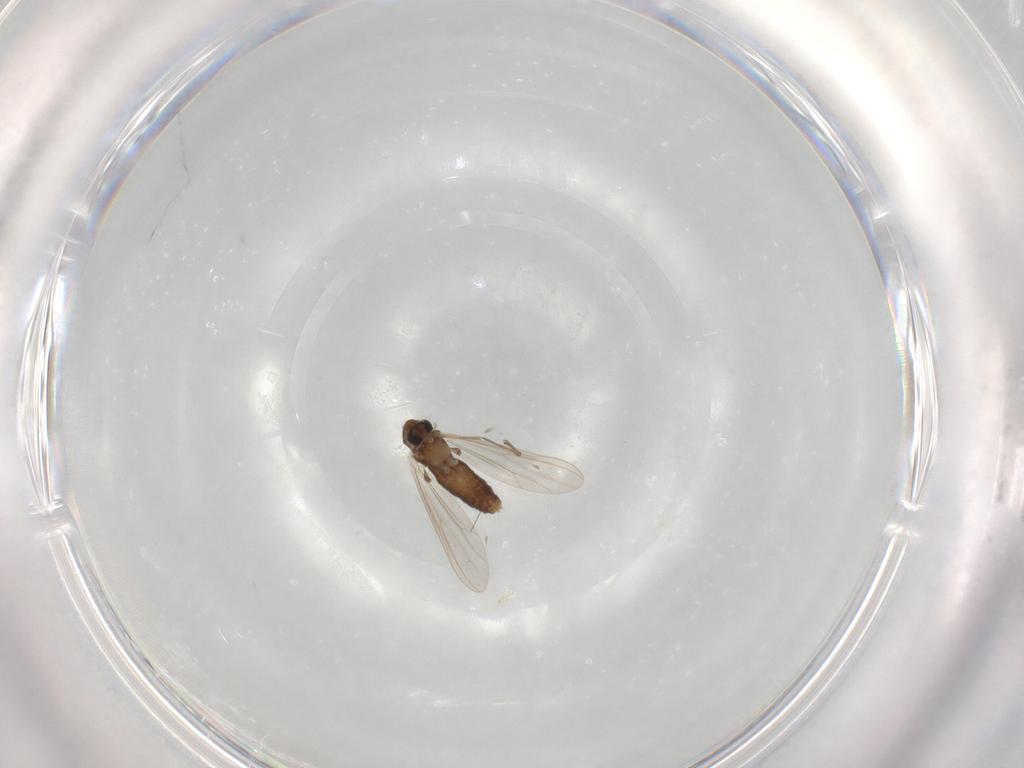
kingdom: Animalia
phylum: Arthropoda
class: Insecta
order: Diptera
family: Chironomidae
